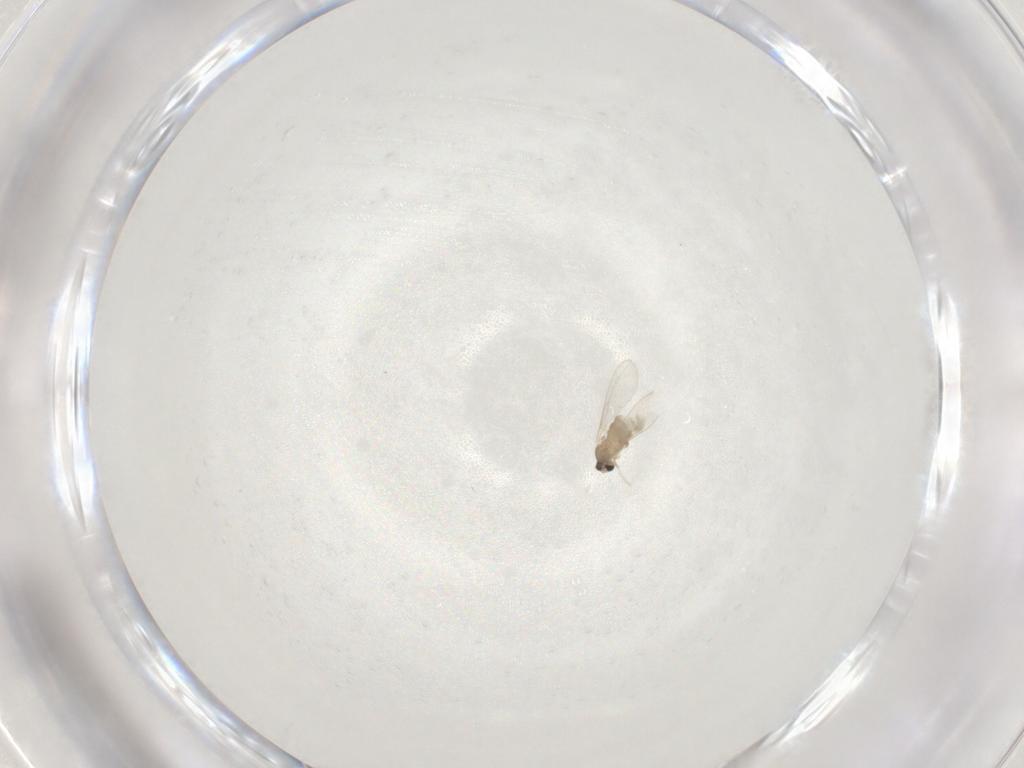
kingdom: Animalia
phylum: Arthropoda
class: Insecta
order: Diptera
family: Cecidomyiidae
